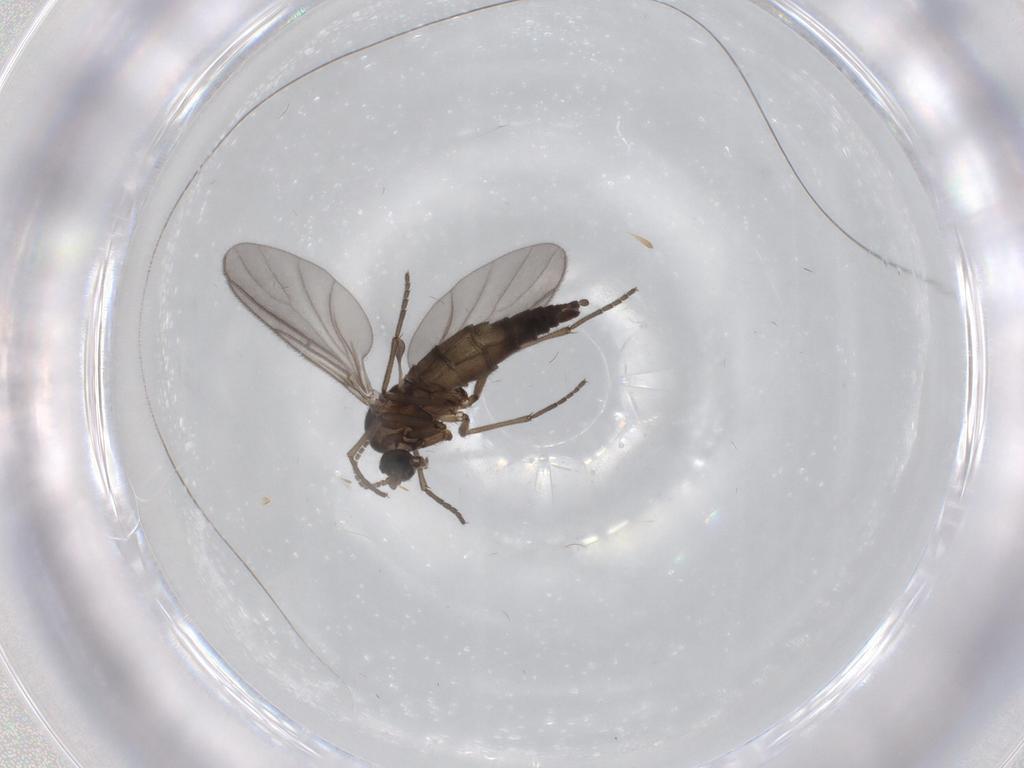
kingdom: Animalia
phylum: Arthropoda
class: Insecta
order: Diptera
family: Sciaridae
